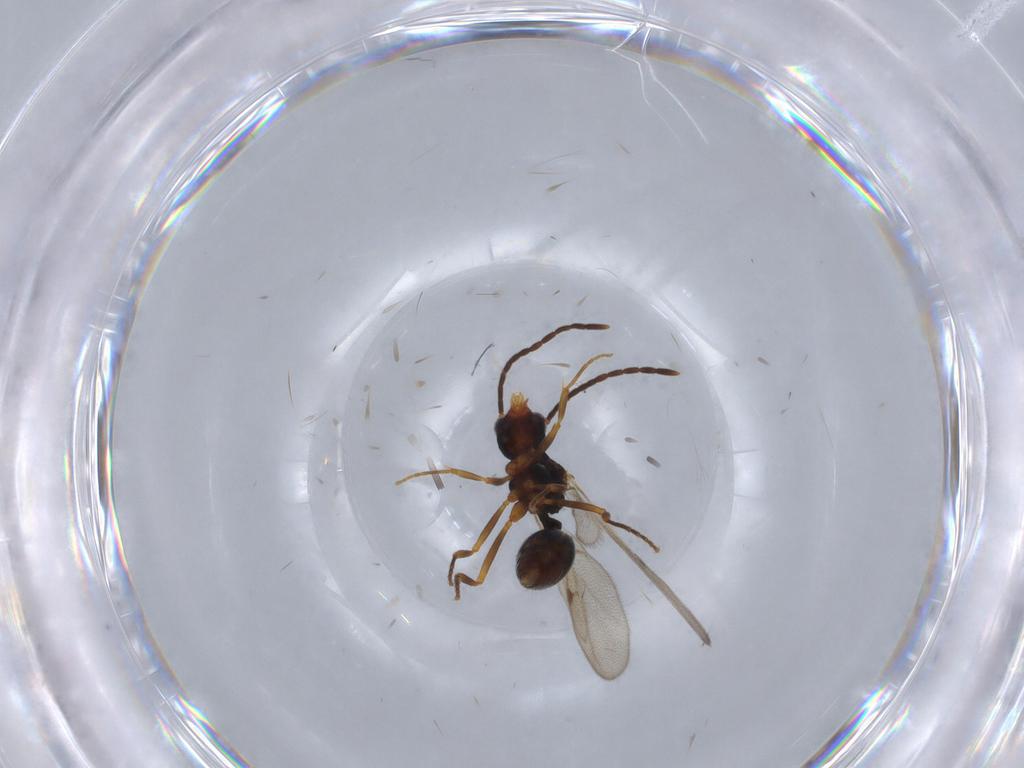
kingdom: Animalia
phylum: Arthropoda
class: Insecta
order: Hymenoptera
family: Formicidae
